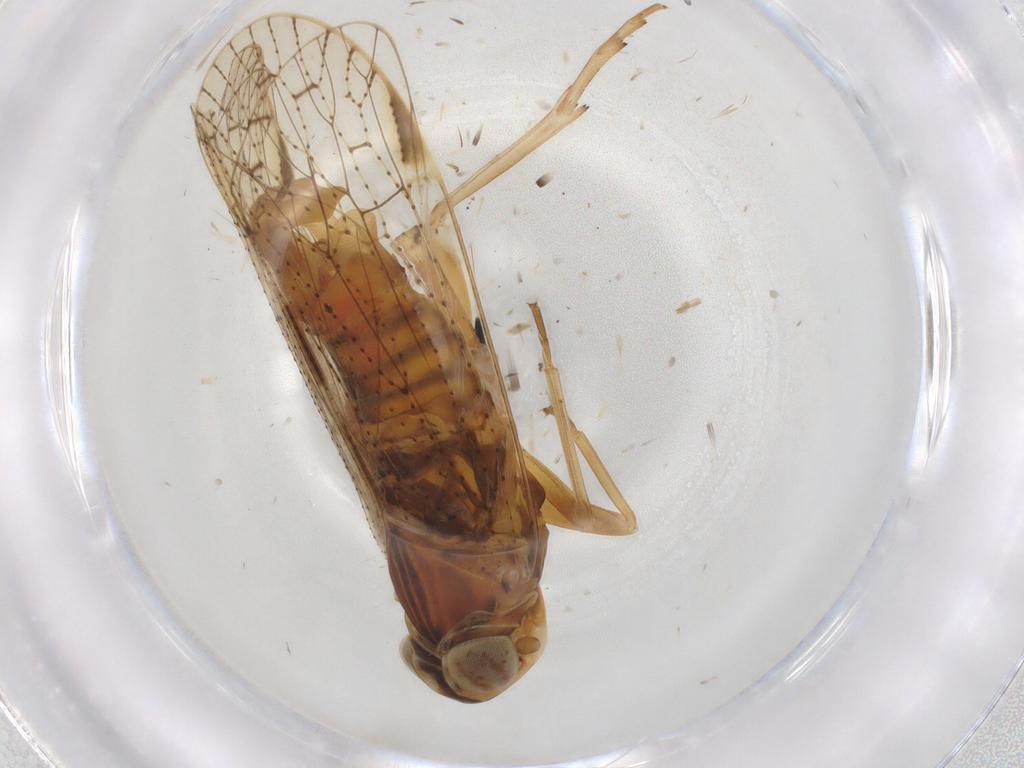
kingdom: Animalia
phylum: Arthropoda
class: Insecta
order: Hemiptera
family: Cixiidae
